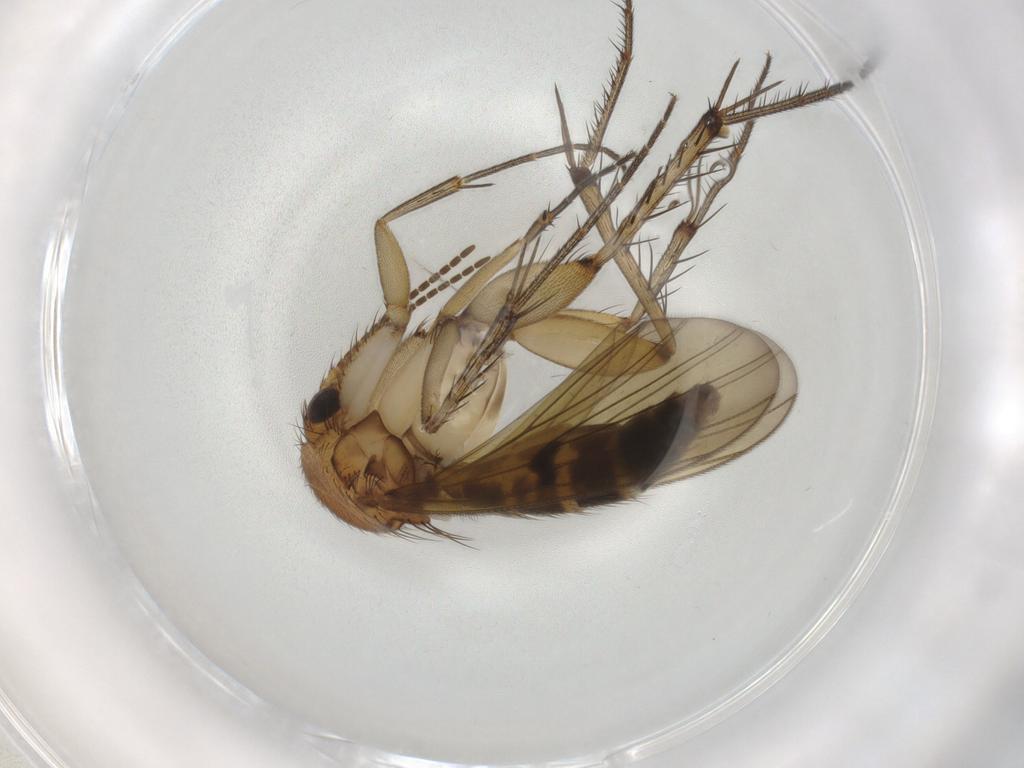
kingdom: Animalia
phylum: Arthropoda
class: Insecta
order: Diptera
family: Mycetophilidae
